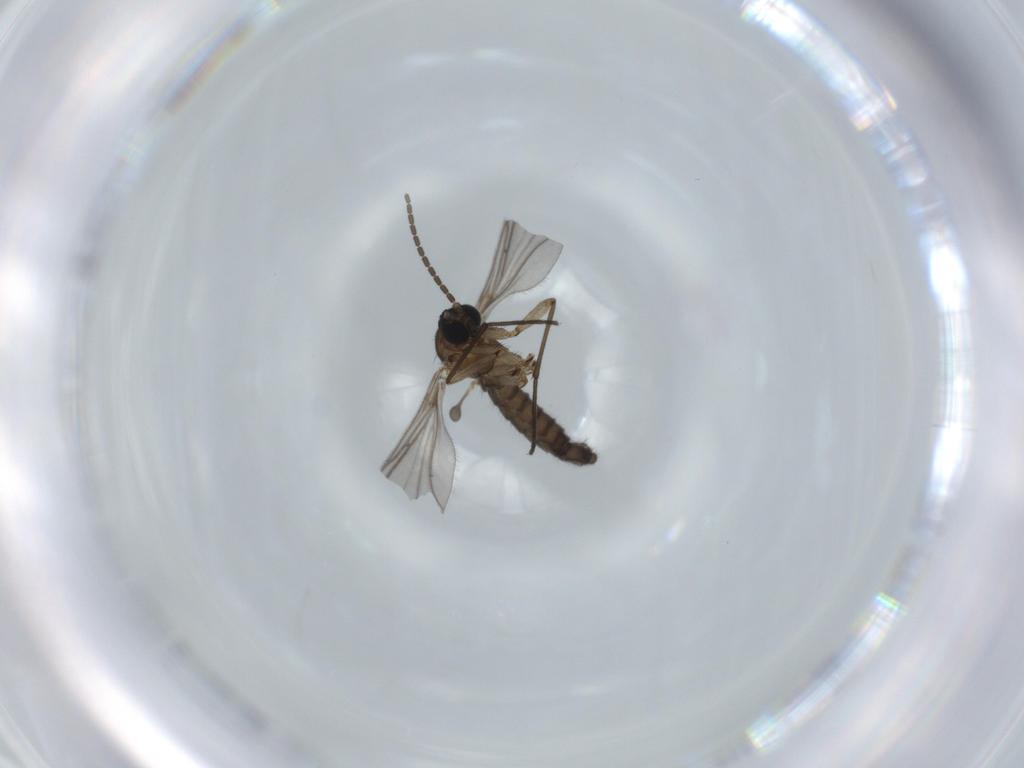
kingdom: Animalia
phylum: Arthropoda
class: Insecta
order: Diptera
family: Sciaridae
